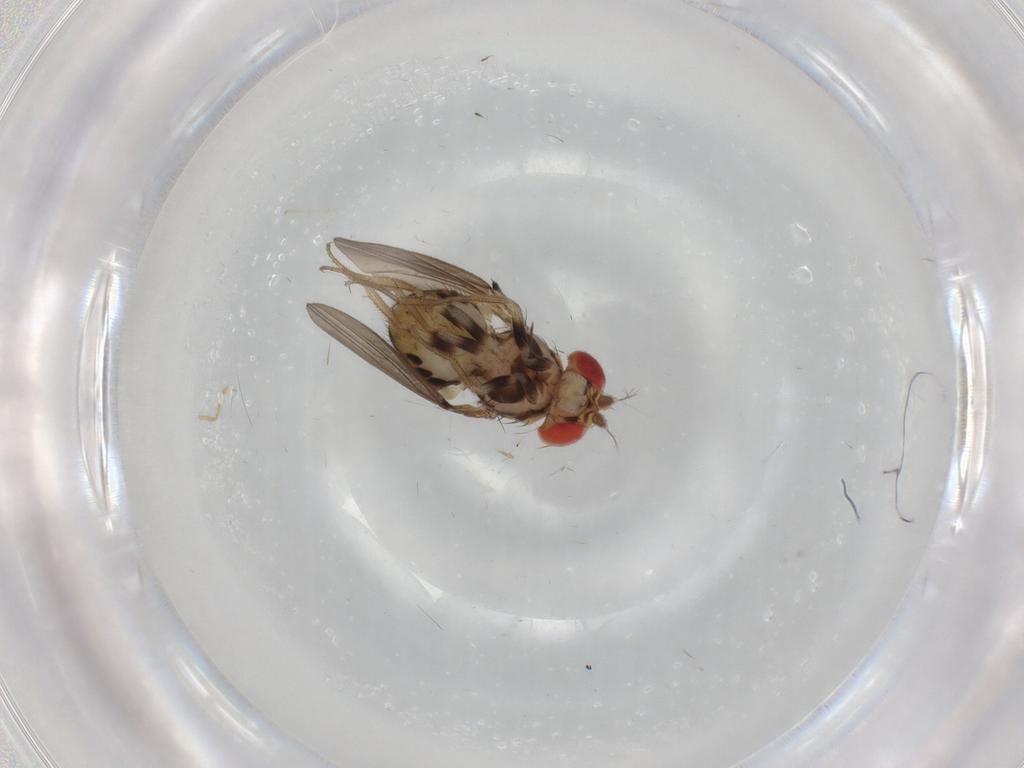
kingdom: Animalia
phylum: Arthropoda
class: Insecta
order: Diptera
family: Drosophilidae
